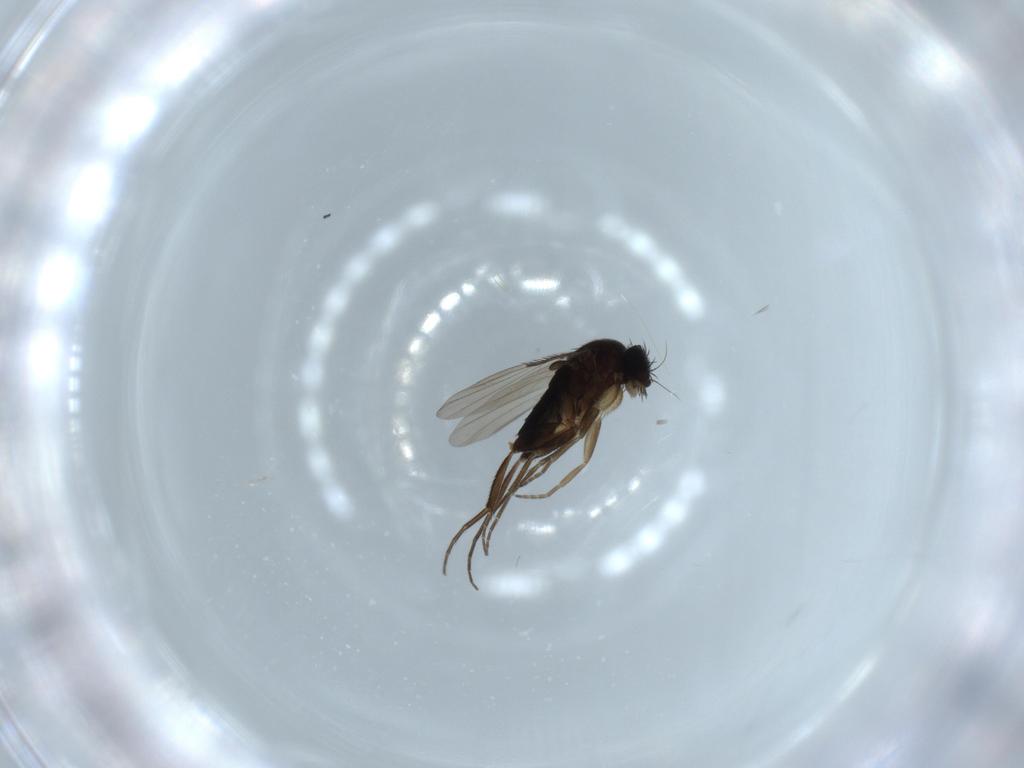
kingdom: Animalia
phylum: Arthropoda
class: Insecta
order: Diptera
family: Phoridae
